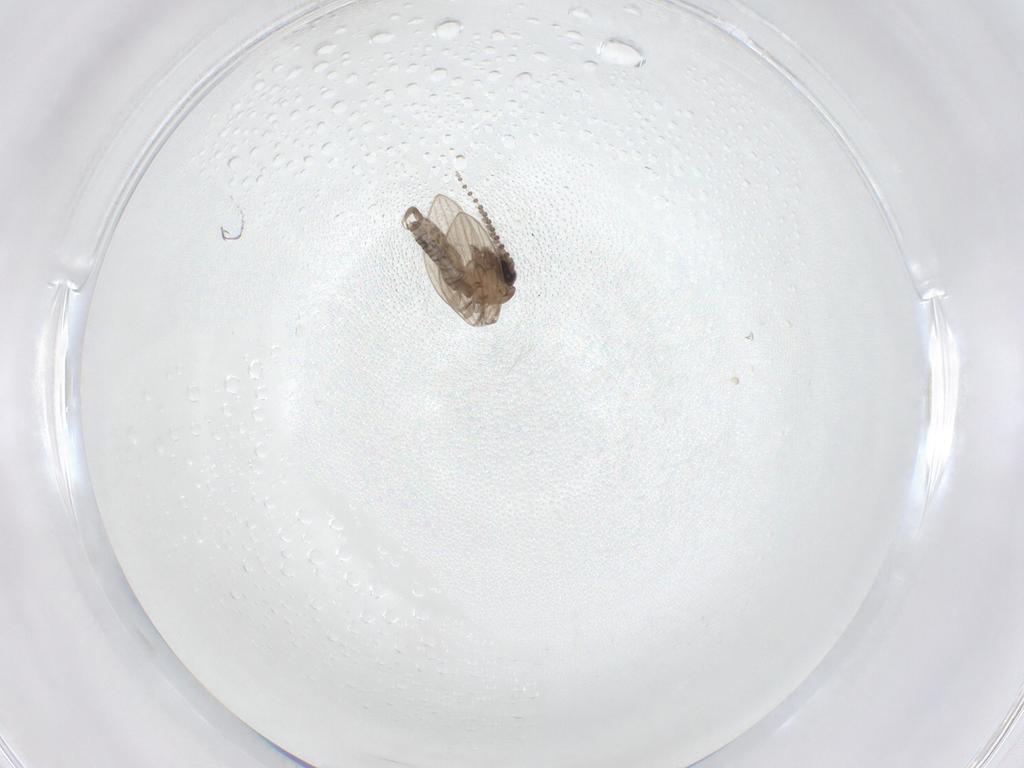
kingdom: Animalia
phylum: Arthropoda
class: Insecta
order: Diptera
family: Psychodidae
